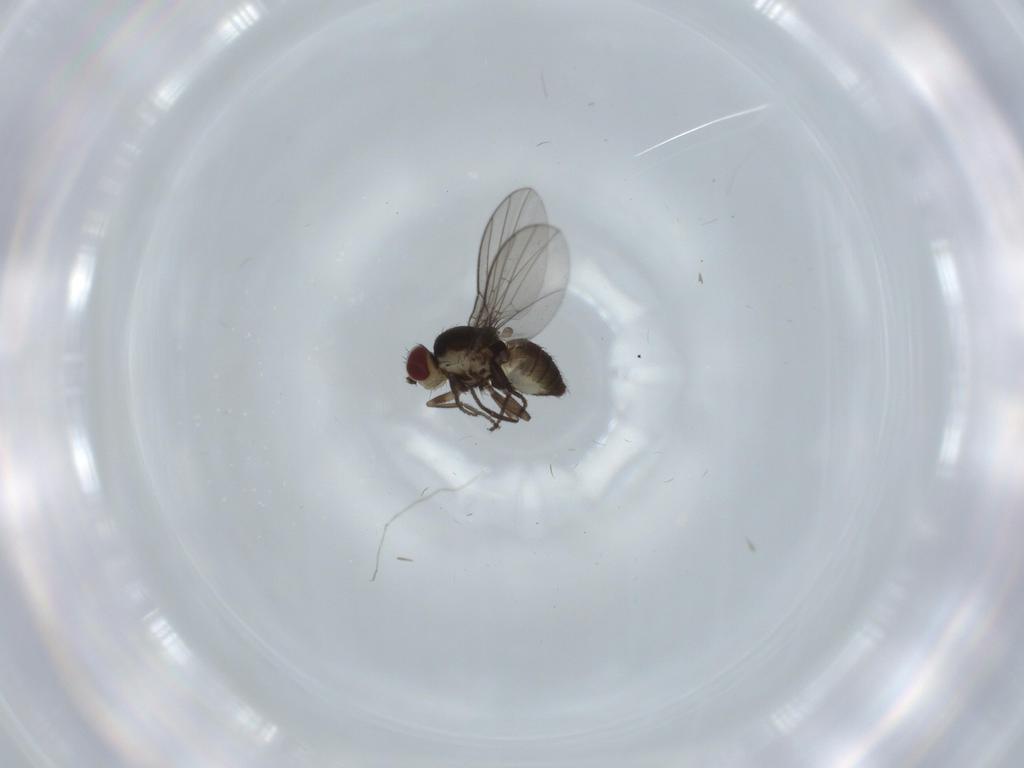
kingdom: Animalia
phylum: Arthropoda
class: Insecta
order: Diptera
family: Agromyzidae
